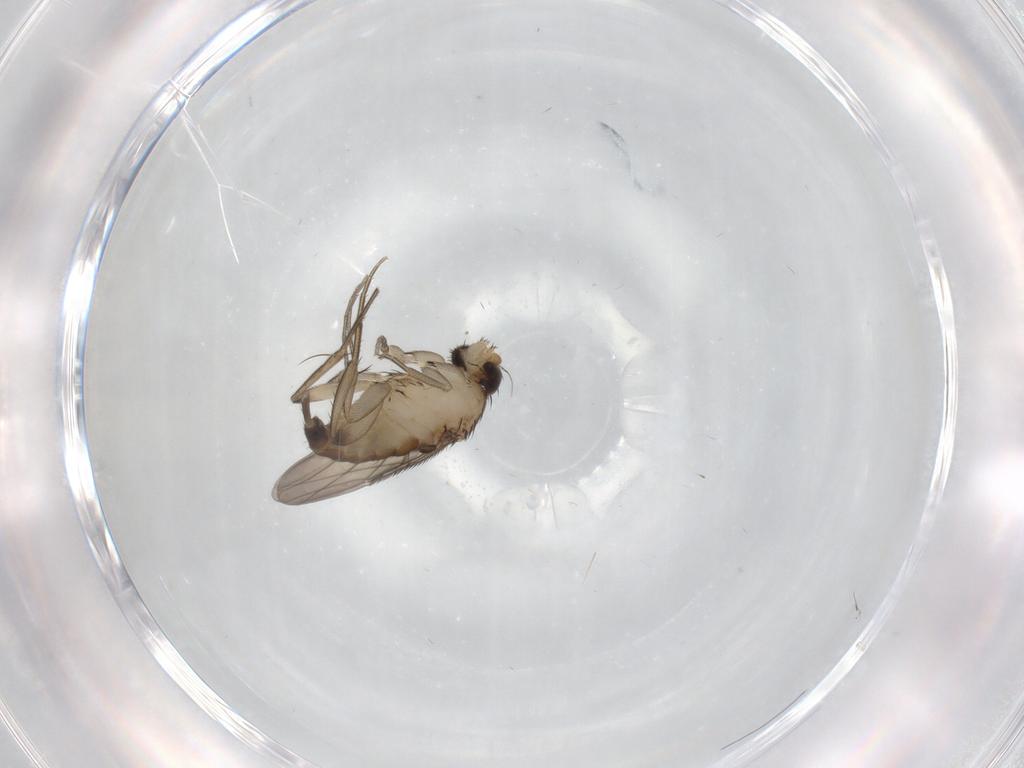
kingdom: Animalia
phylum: Arthropoda
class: Insecta
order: Diptera
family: Phoridae
